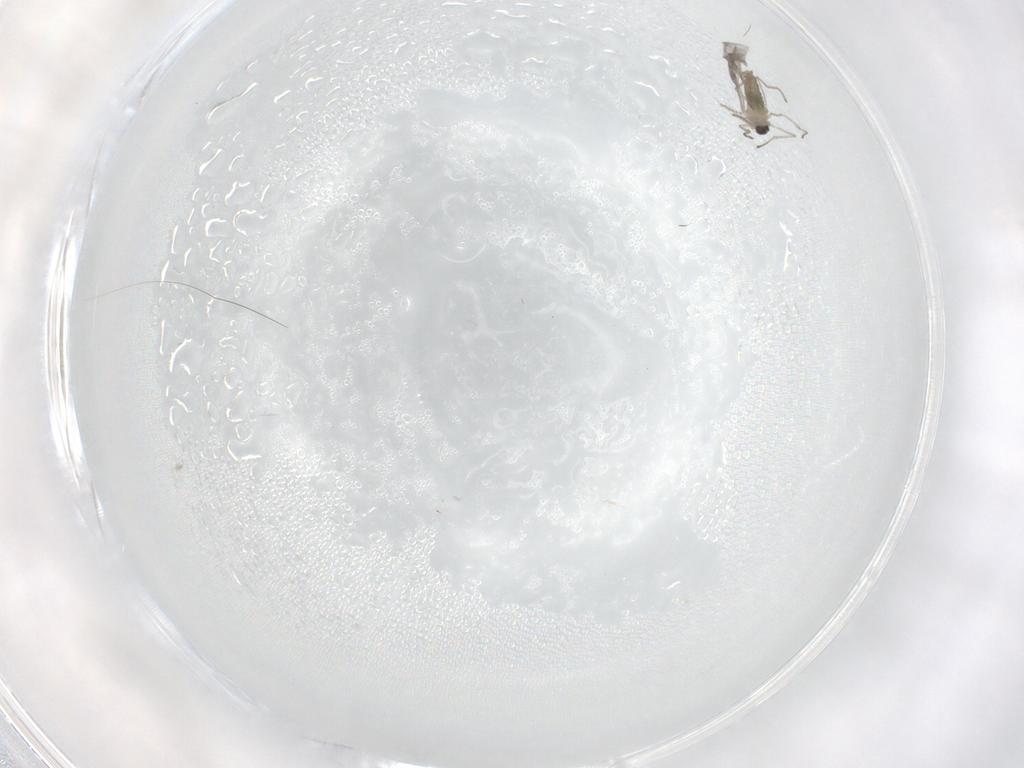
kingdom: Animalia
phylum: Arthropoda
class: Insecta
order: Diptera
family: Cecidomyiidae
